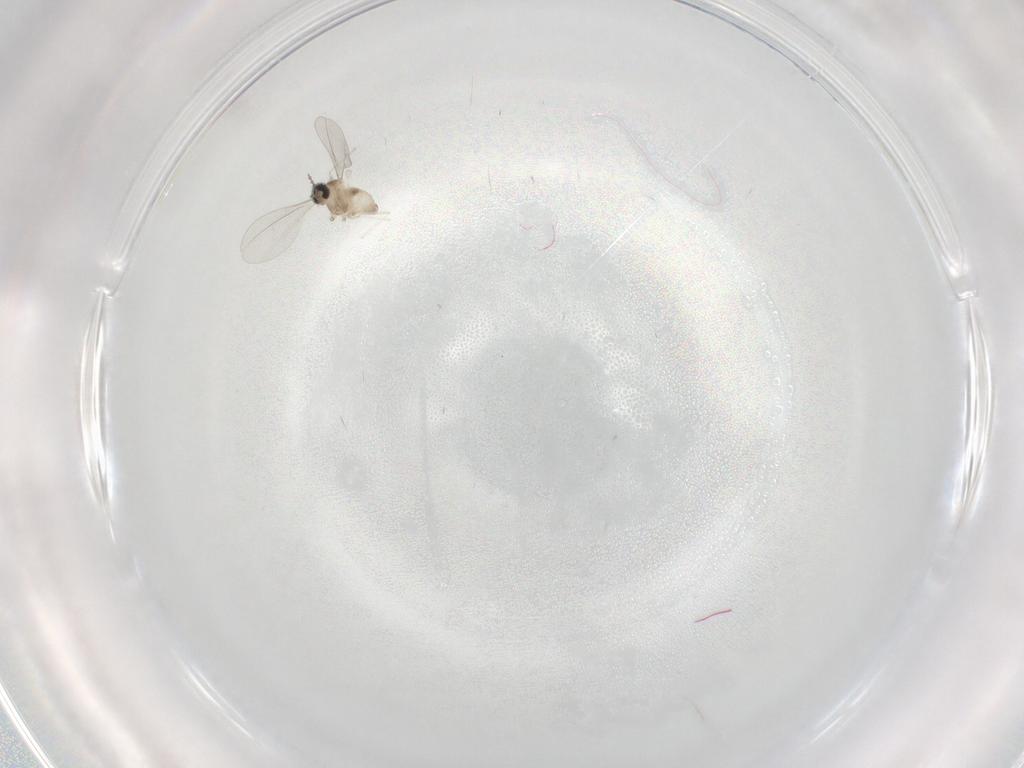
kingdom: Animalia
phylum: Arthropoda
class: Insecta
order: Diptera
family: Cecidomyiidae
